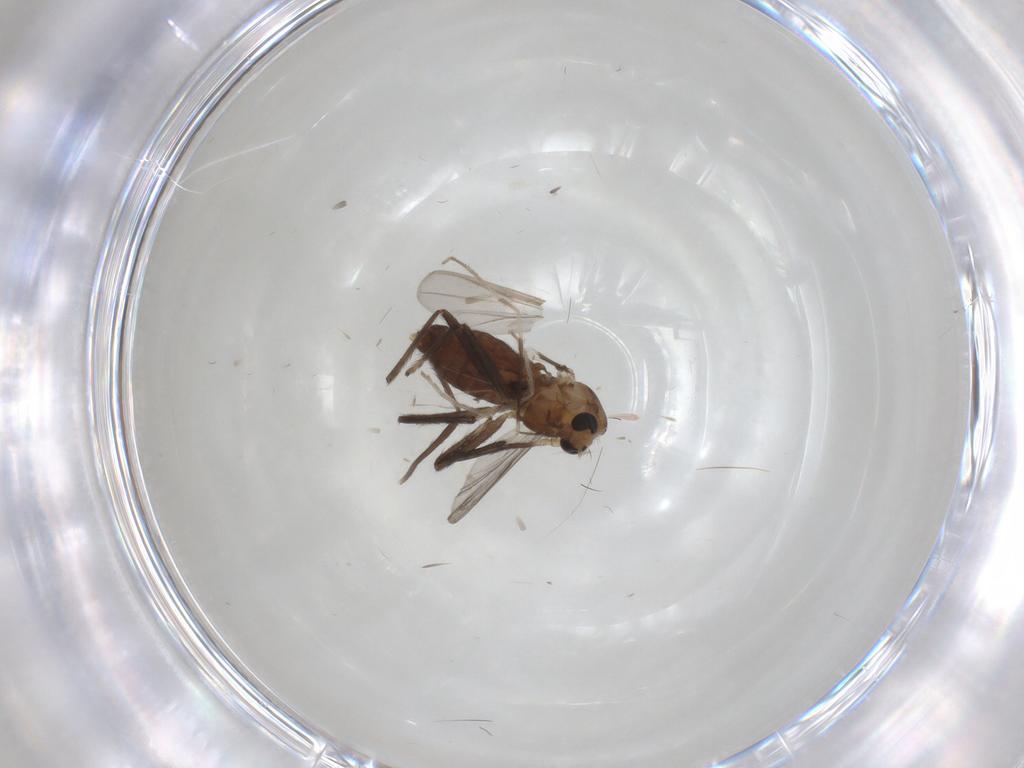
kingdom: Animalia
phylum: Arthropoda
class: Insecta
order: Diptera
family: Chironomidae
